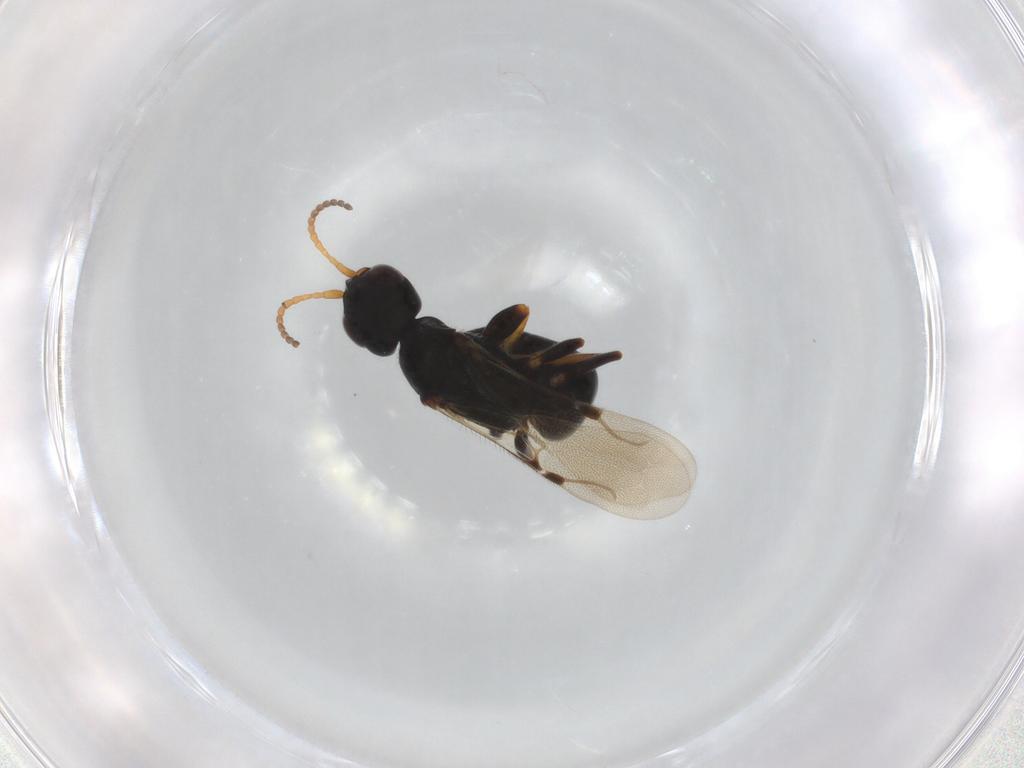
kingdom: Animalia
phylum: Arthropoda
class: Insecta
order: Hymenoptera
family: Bethylidae
